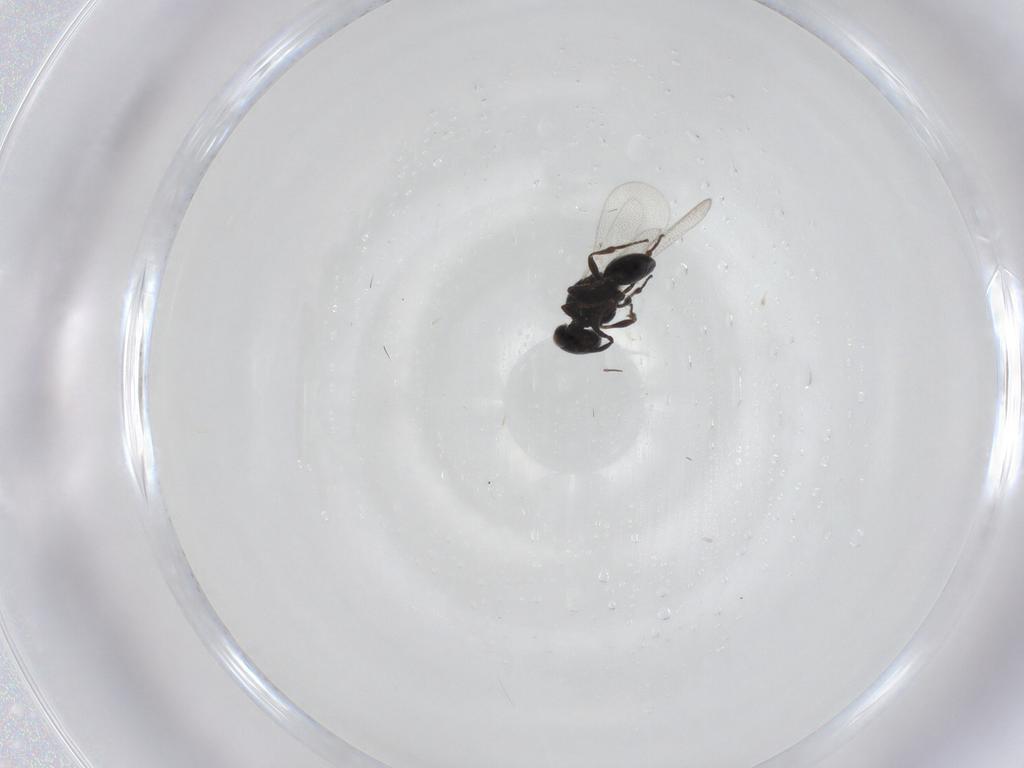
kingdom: Animalia
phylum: Arthropoda
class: Insecta
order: Hymenoptera
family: Platygastridae
